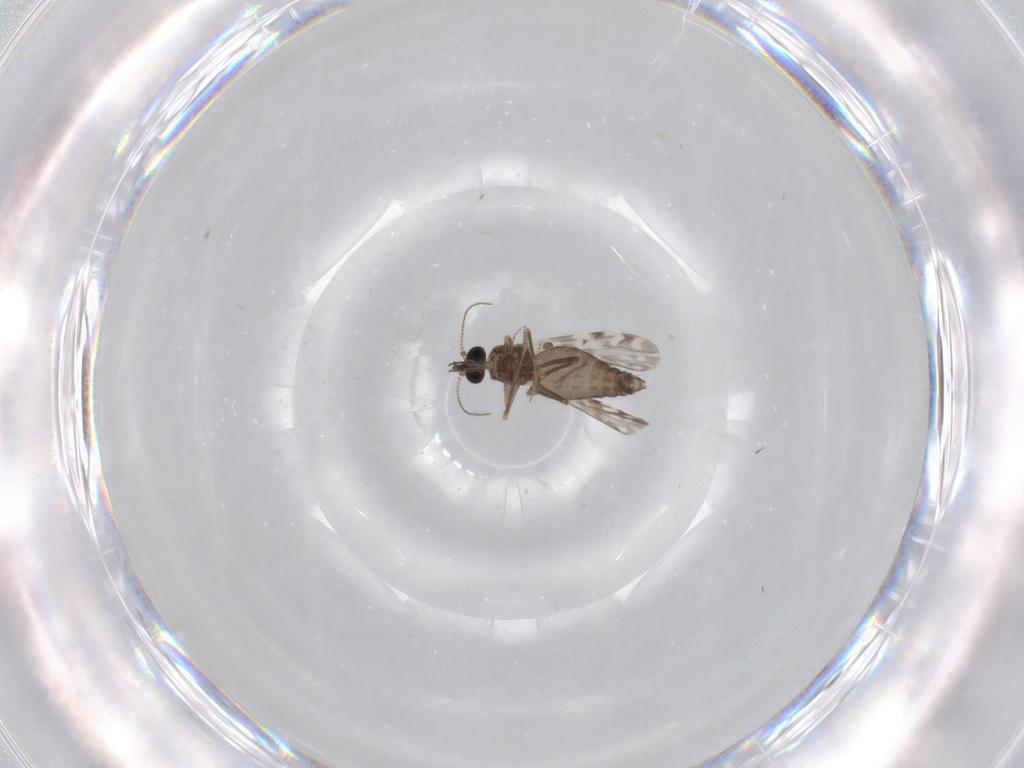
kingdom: Animalia
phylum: Arthropoda
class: Insecta
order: Diptera
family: Ceratopogonidae
